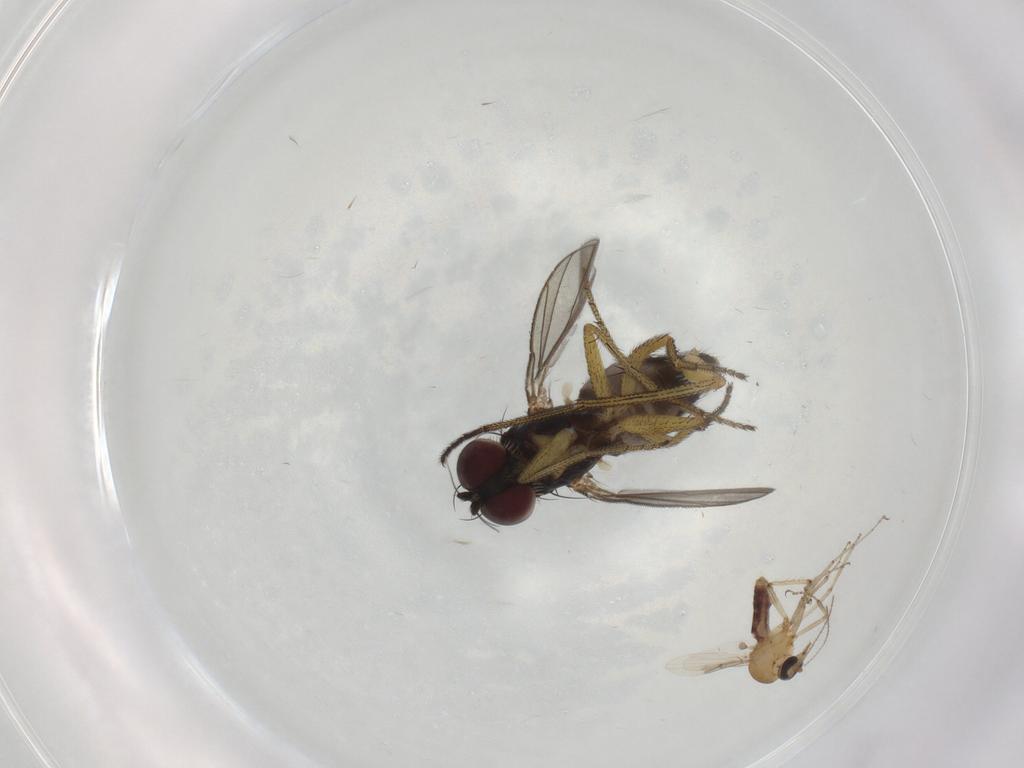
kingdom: Animalia
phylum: Arthropoda
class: Insecta
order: Diptera
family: Ceratopogonidae
